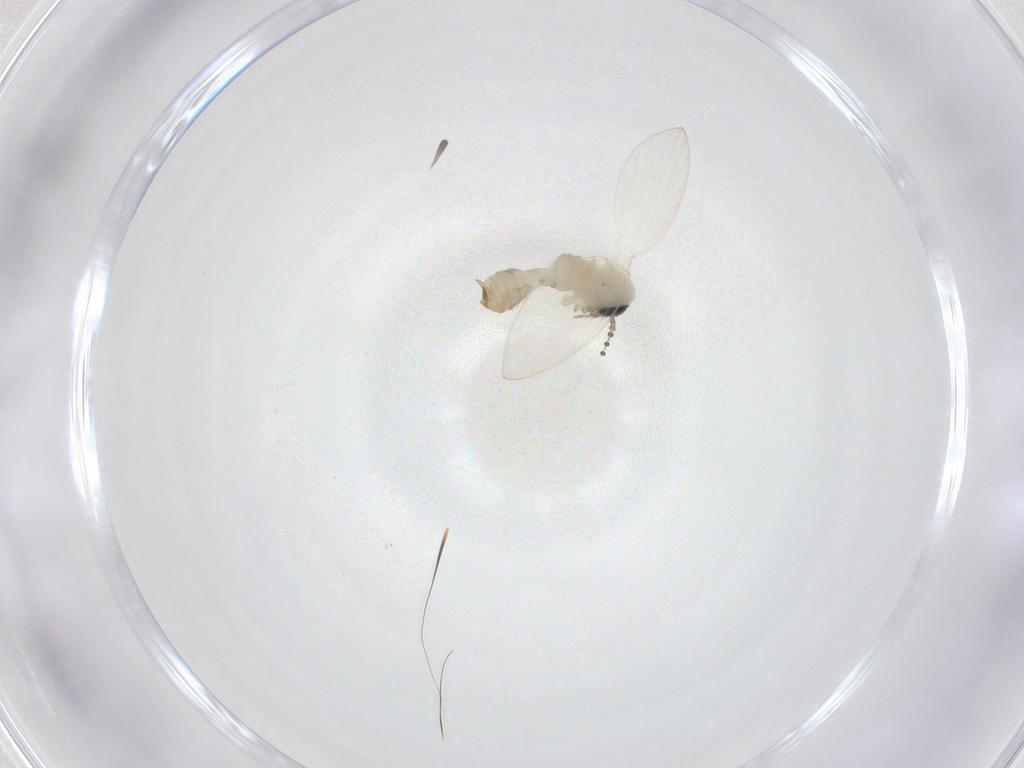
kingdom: Animalia
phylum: Arthropoda
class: Insecta
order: Diptera
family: Psychodidae
